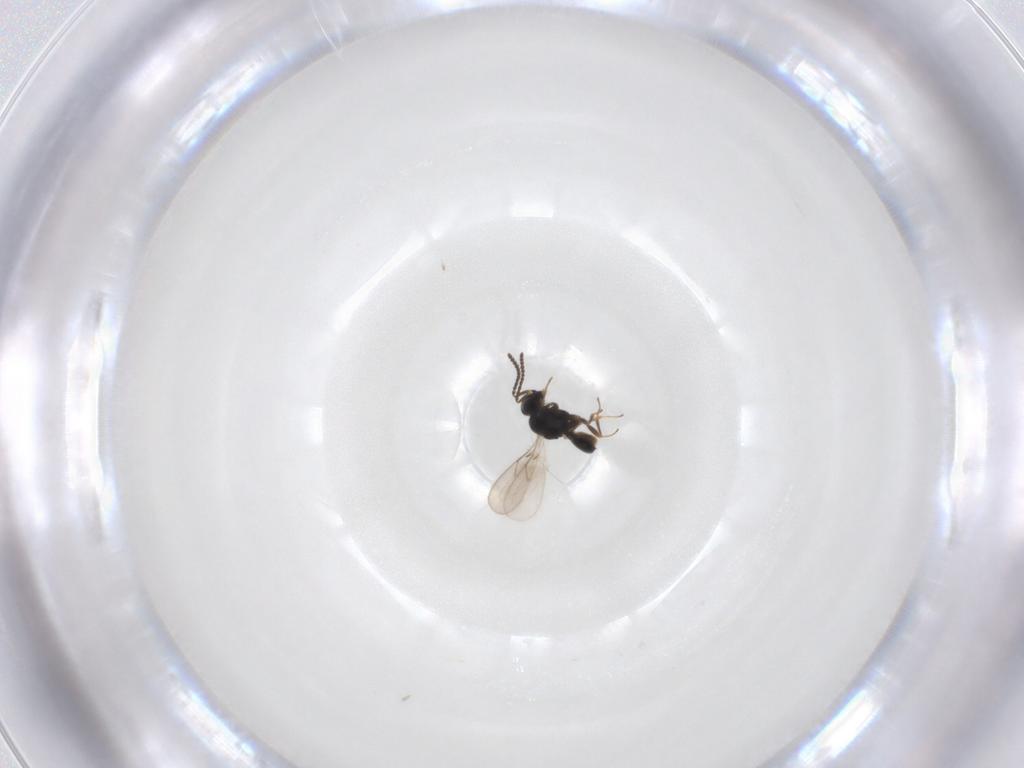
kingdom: Animalia
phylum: Arthropoda
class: Insecta
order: Hymenoptera
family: Ichneumonidae
